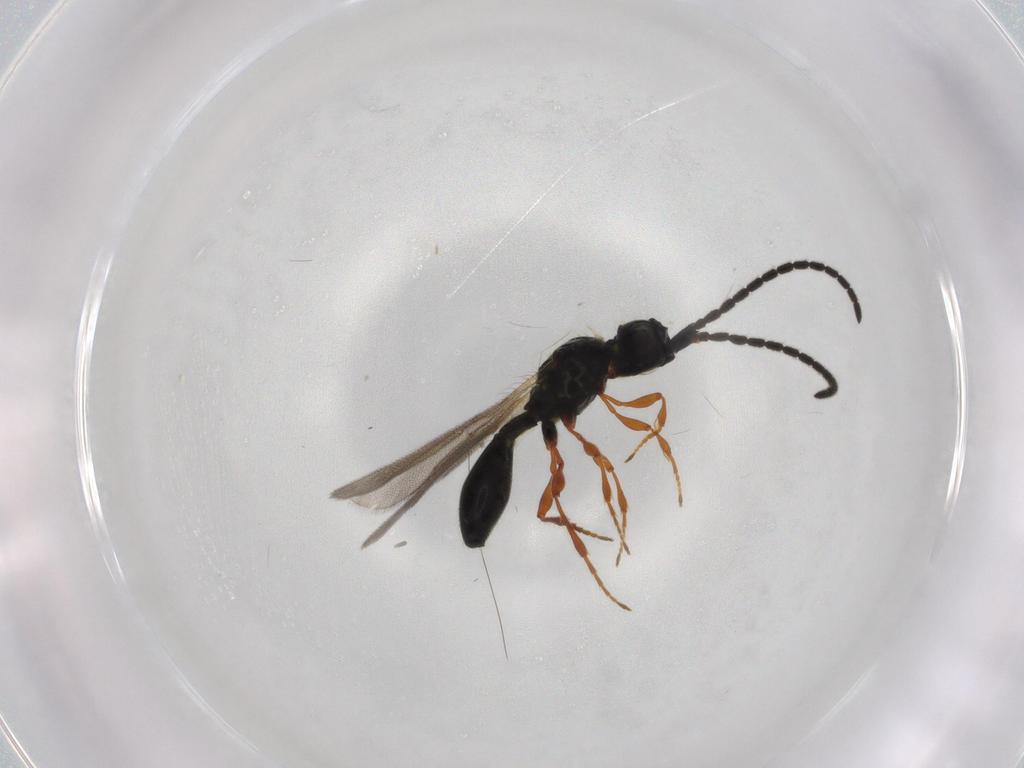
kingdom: Animalia
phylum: Arthropoda
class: Insecta
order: Hymenoptera
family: Diapriidae
